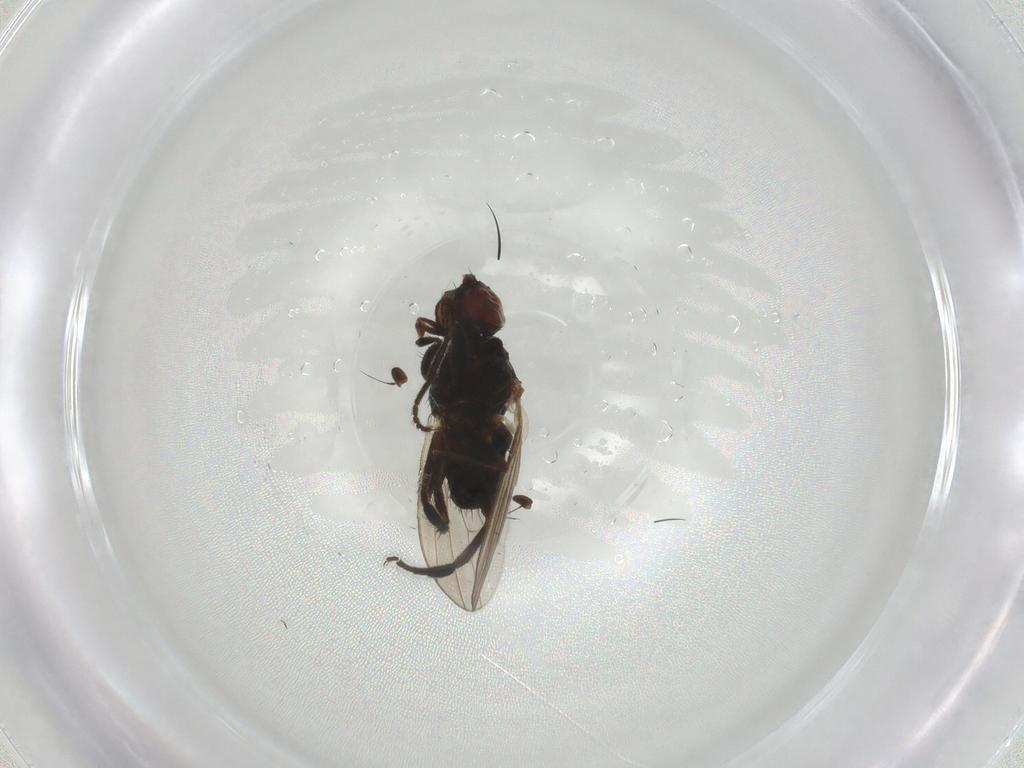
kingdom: Animalia
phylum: Arthropoda
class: Insecta
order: Diptera
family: Heleomyzidae
